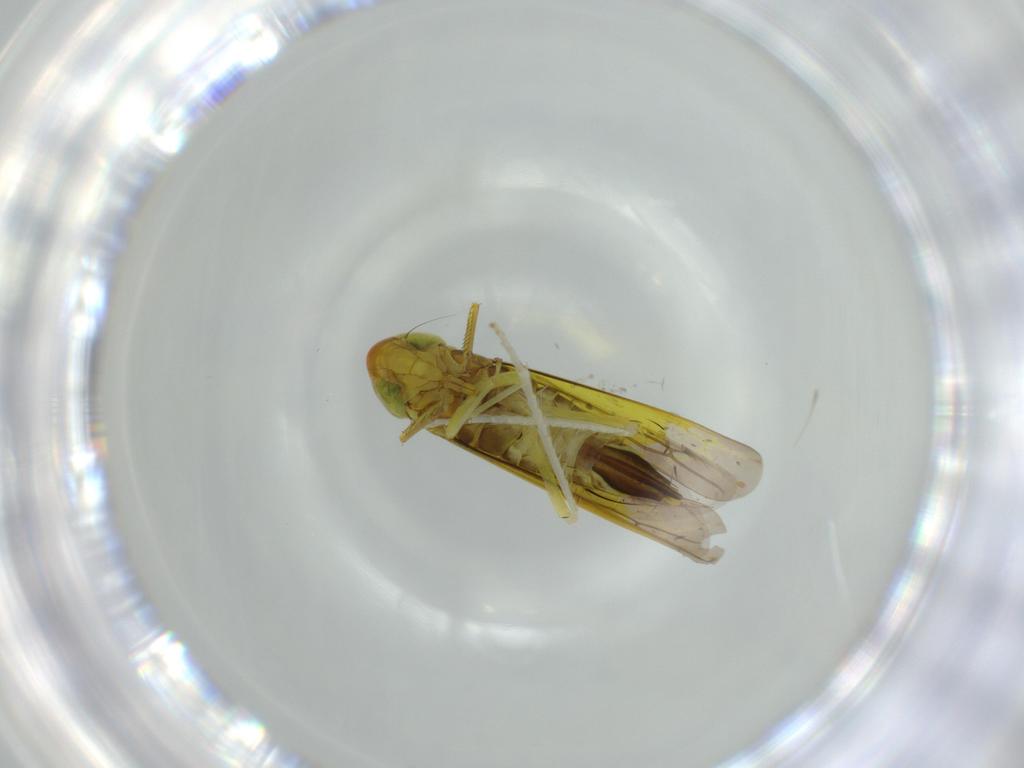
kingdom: Animalia
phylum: Arthropoda
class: Insecta
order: Hemiptera
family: Cicadellidae
